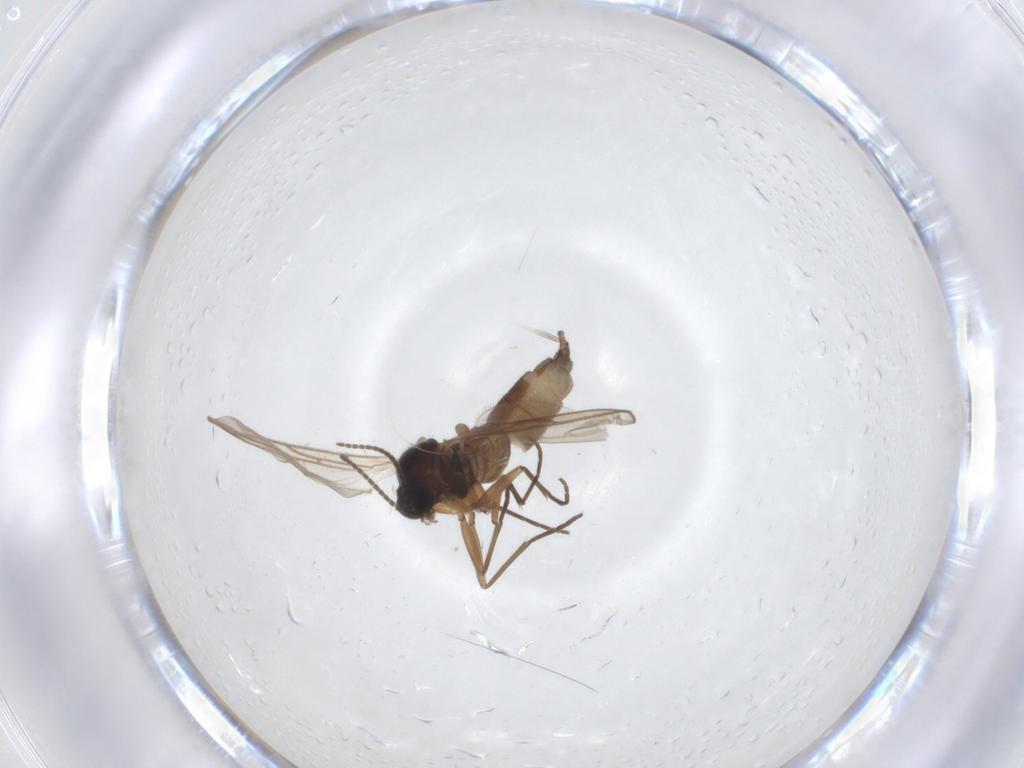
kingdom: Animalia
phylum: Arthropoda
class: Insecta
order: Diptera
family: Sciaridae
